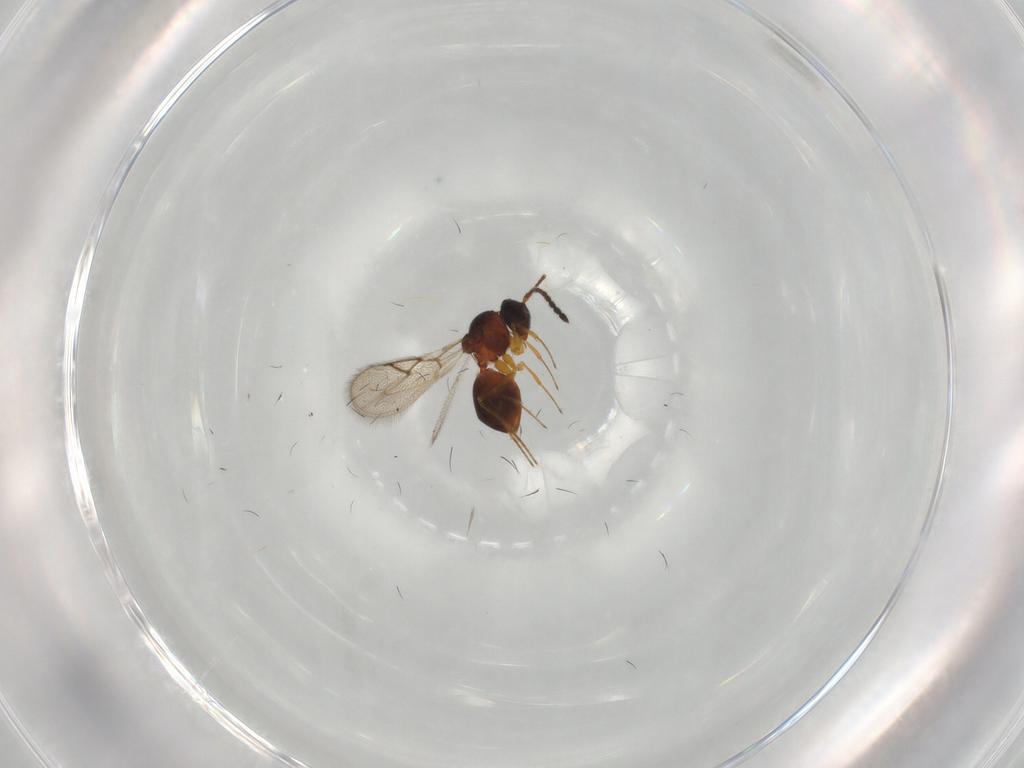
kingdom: Animalia
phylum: Arthropoda
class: Insecta
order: Hymenoptera
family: Figitidae
